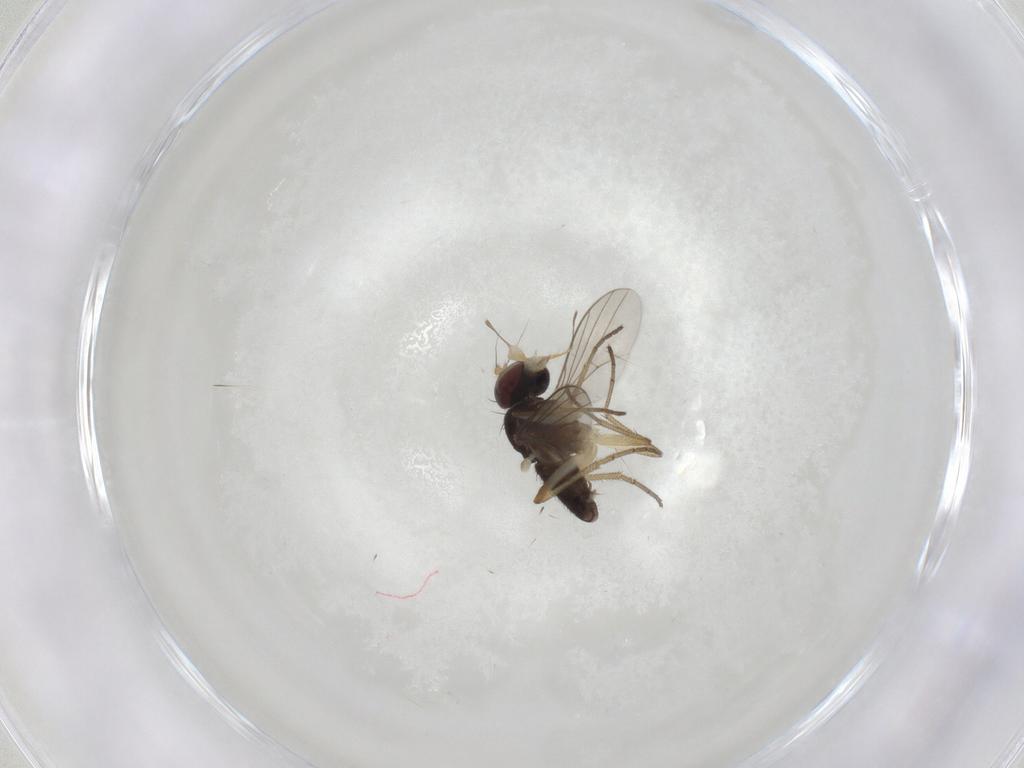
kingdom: Animalia
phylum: Arthropoda
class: Insecta
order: Diptera
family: Dolichopodidae
